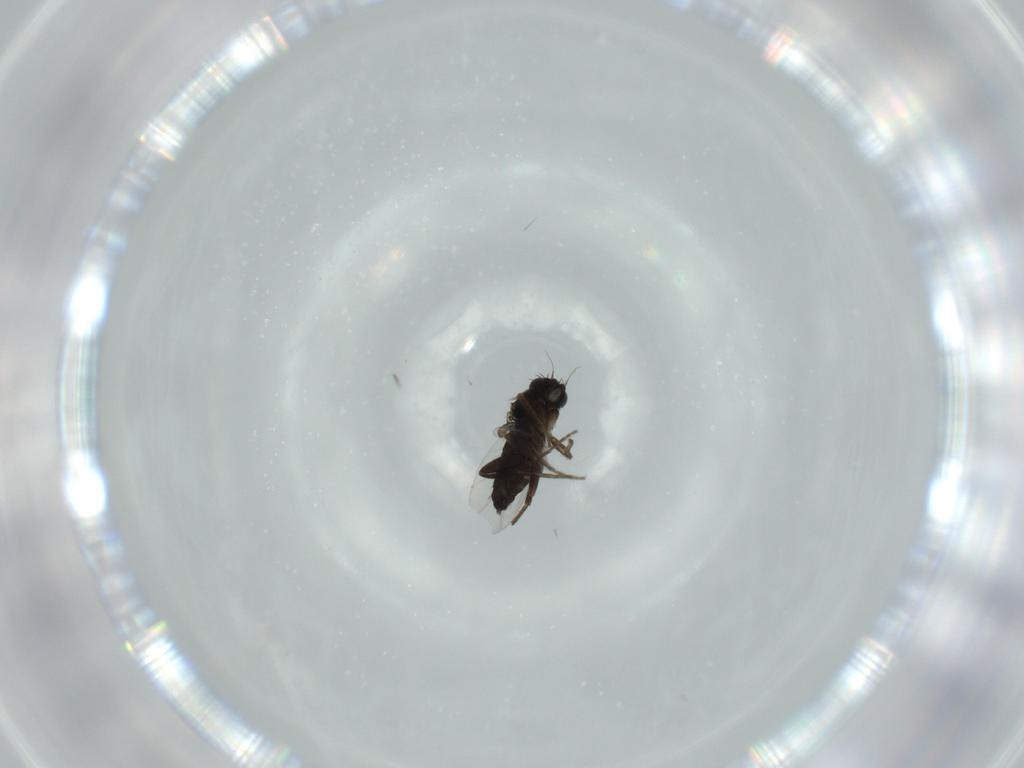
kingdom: Animalia
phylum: Arthropoda
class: Insecta
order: Diptera
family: Phoridae
